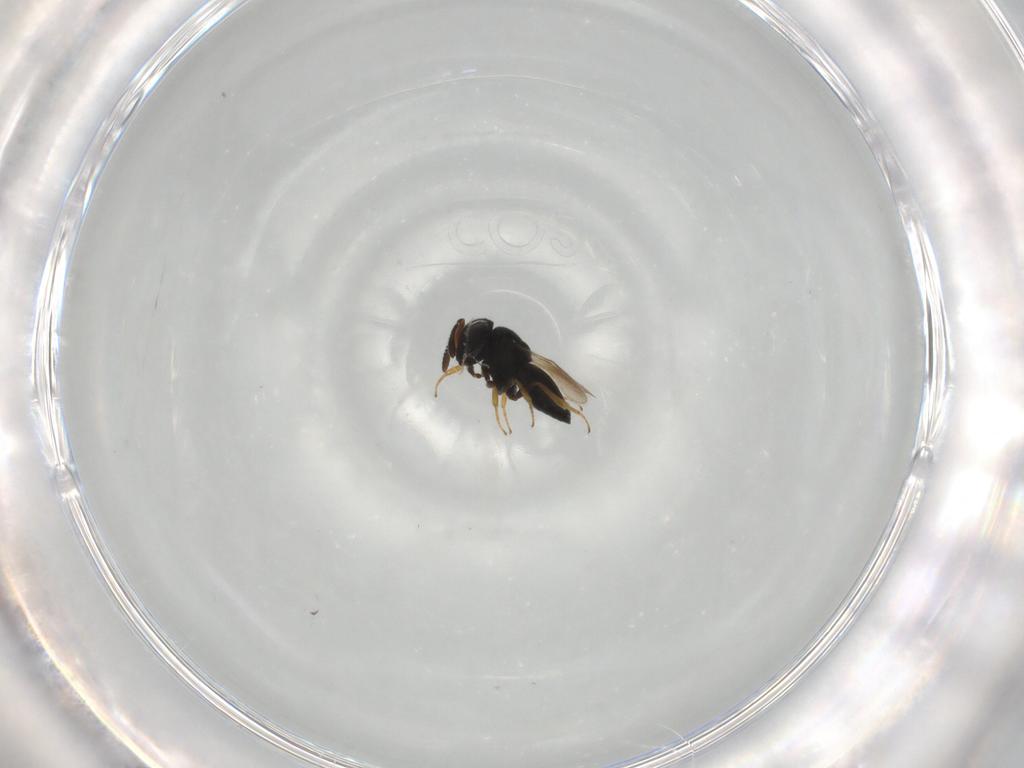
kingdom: Animalia
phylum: Arthropoda
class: Insecta
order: Hymenoptera
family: Scelionidae
